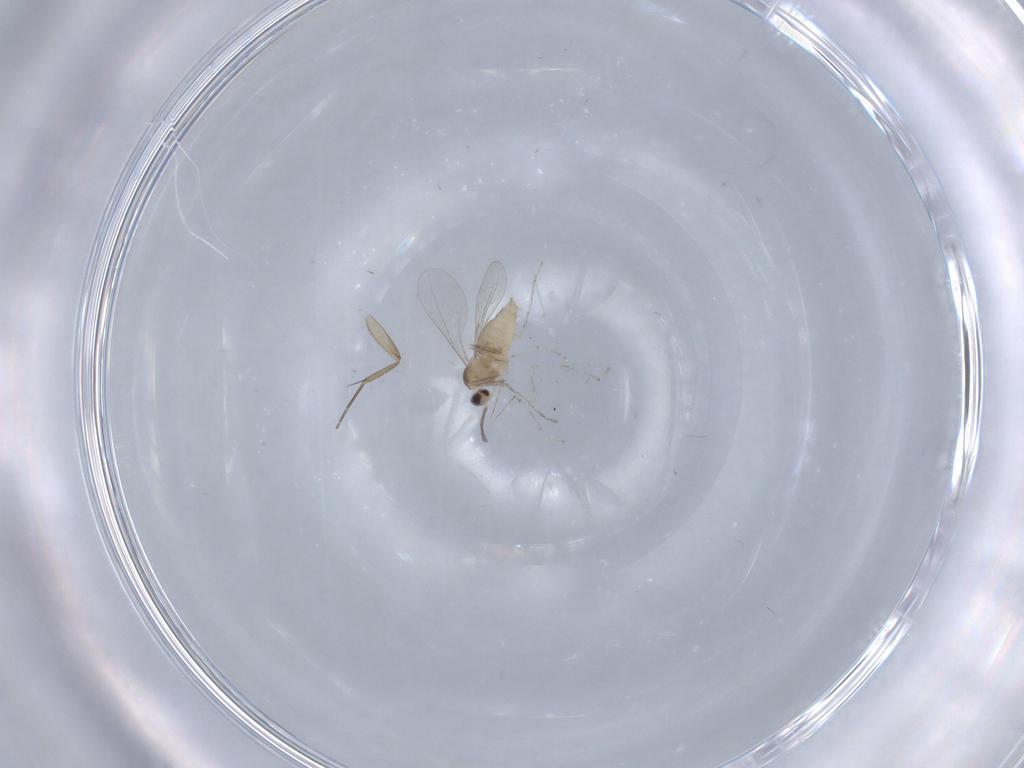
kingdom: Animalia
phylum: Arthropoda
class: Insecta
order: Diptera
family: Cecidomyiidae
